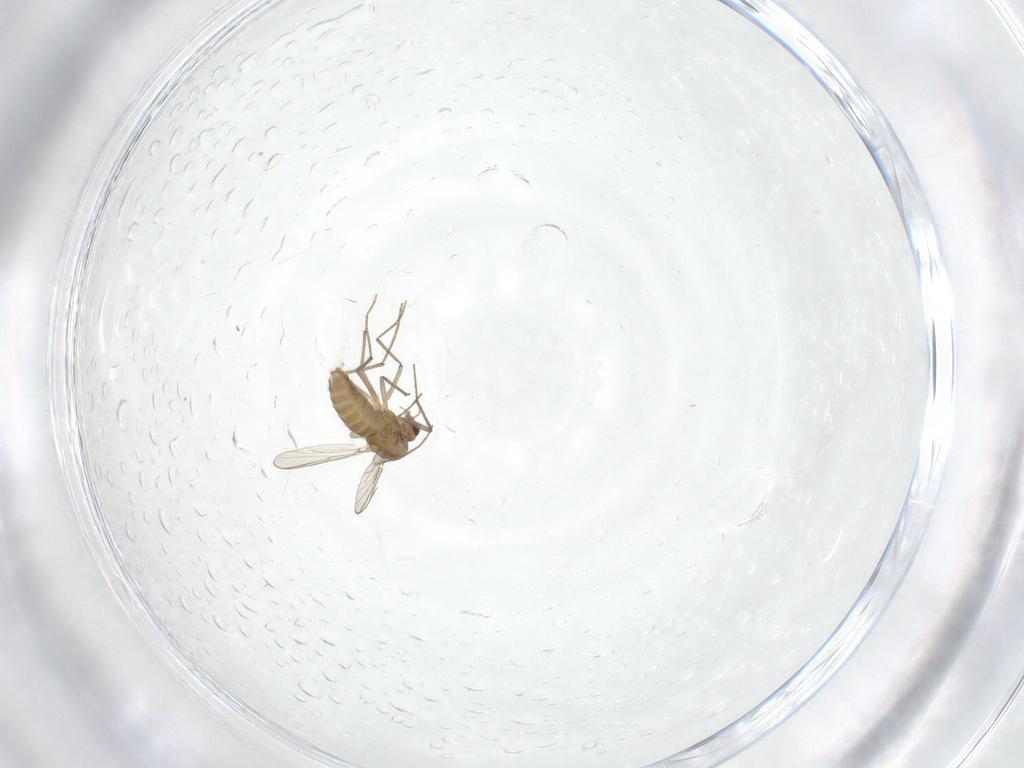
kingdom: Animalia
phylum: Arthropoda
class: Insecta
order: Diptera
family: Chironomidae
